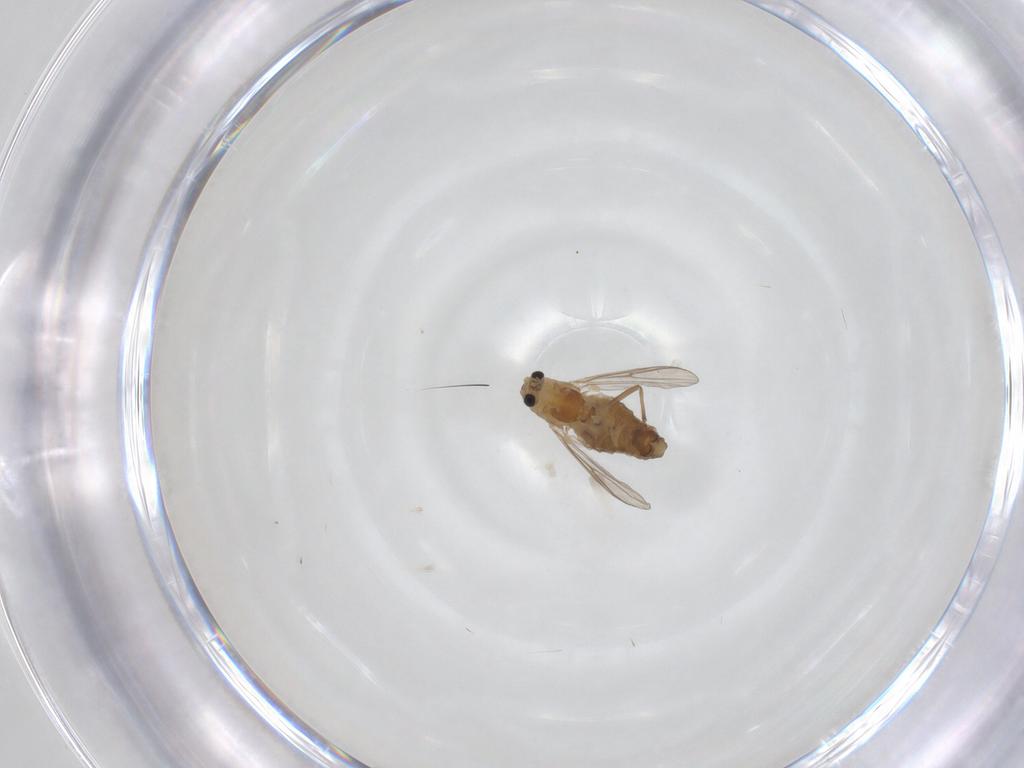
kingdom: Animalia
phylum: Arthropoda
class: Insecta
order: Diptera
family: Chironomidae
